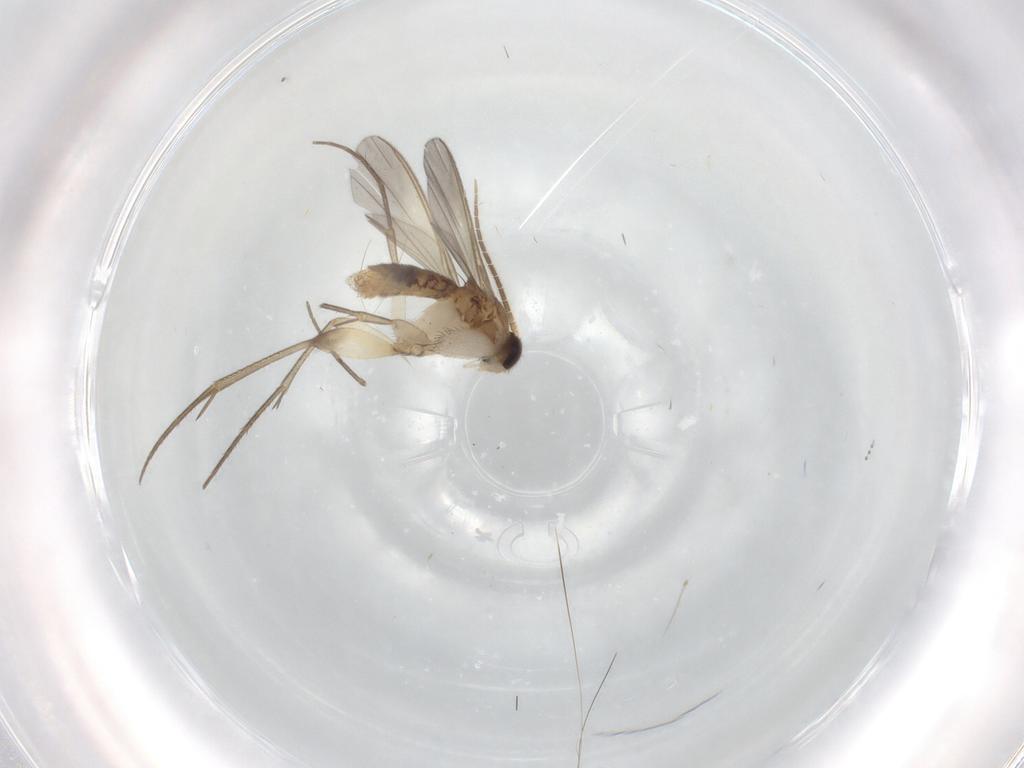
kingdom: Animalia
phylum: Arthropoda
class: Insecta
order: Diptera
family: Mycetophilidae
